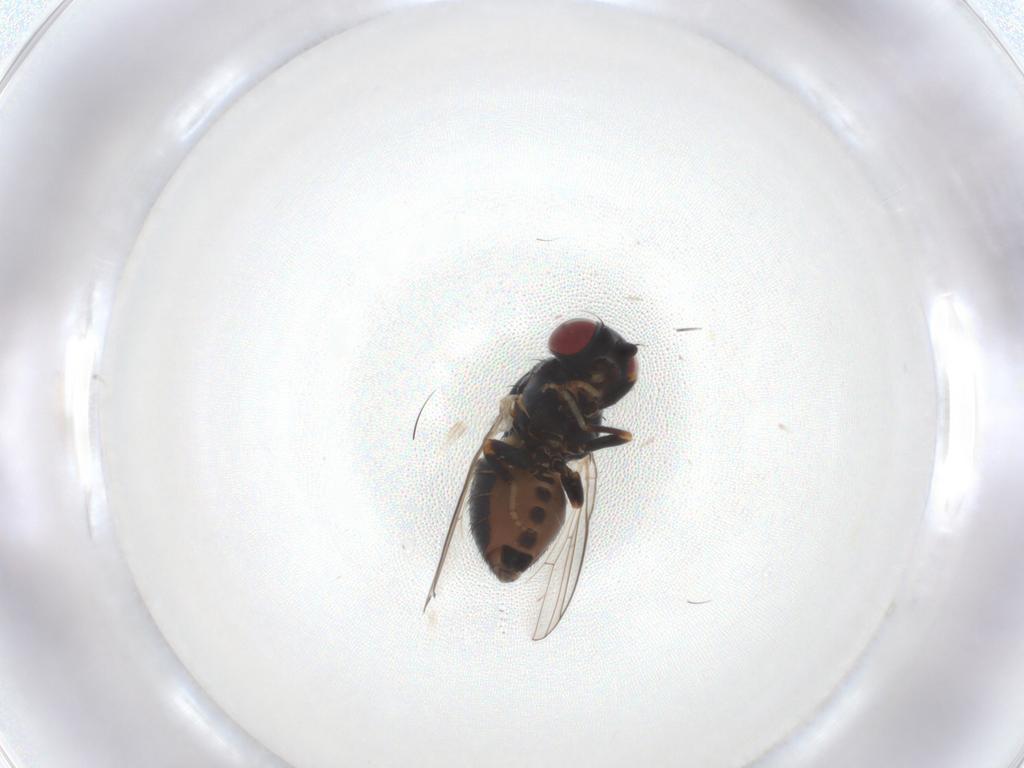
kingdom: Animalia
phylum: Arthropoda
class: Insecta
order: Diptera
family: Chamaemyiidae
